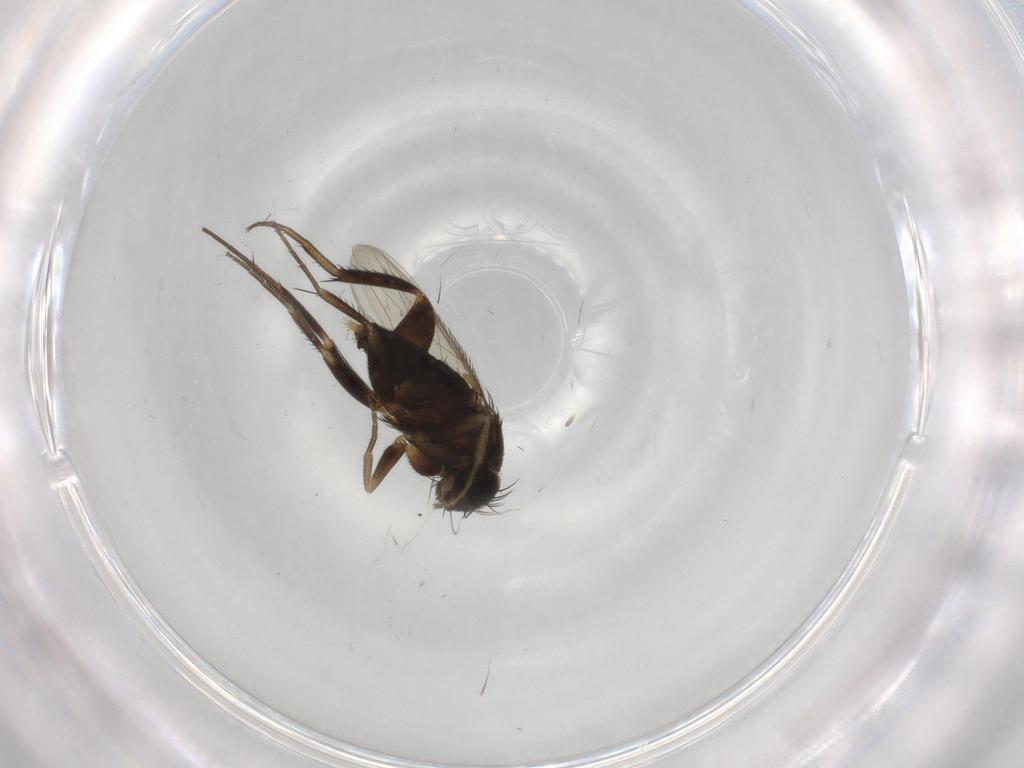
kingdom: Animalia
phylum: Arthropoda
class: Insecta
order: Diptera
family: Phoridae
